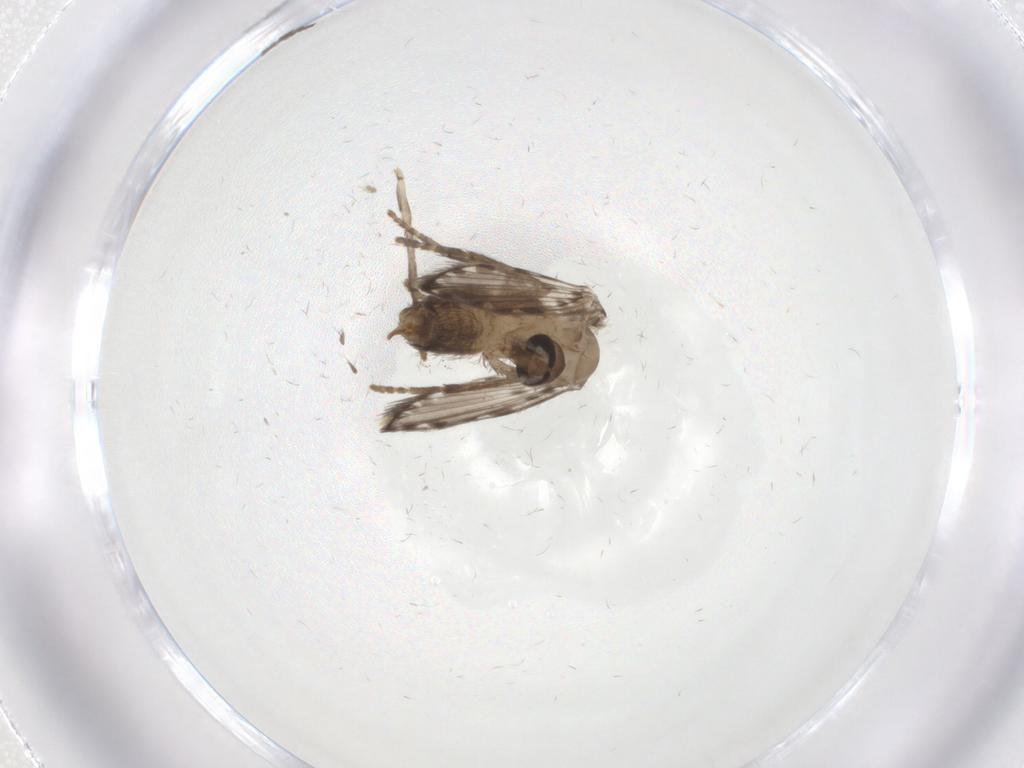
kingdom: Animalia
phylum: Arthropoda
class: Insecta
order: Diptera
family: Psychodidae
